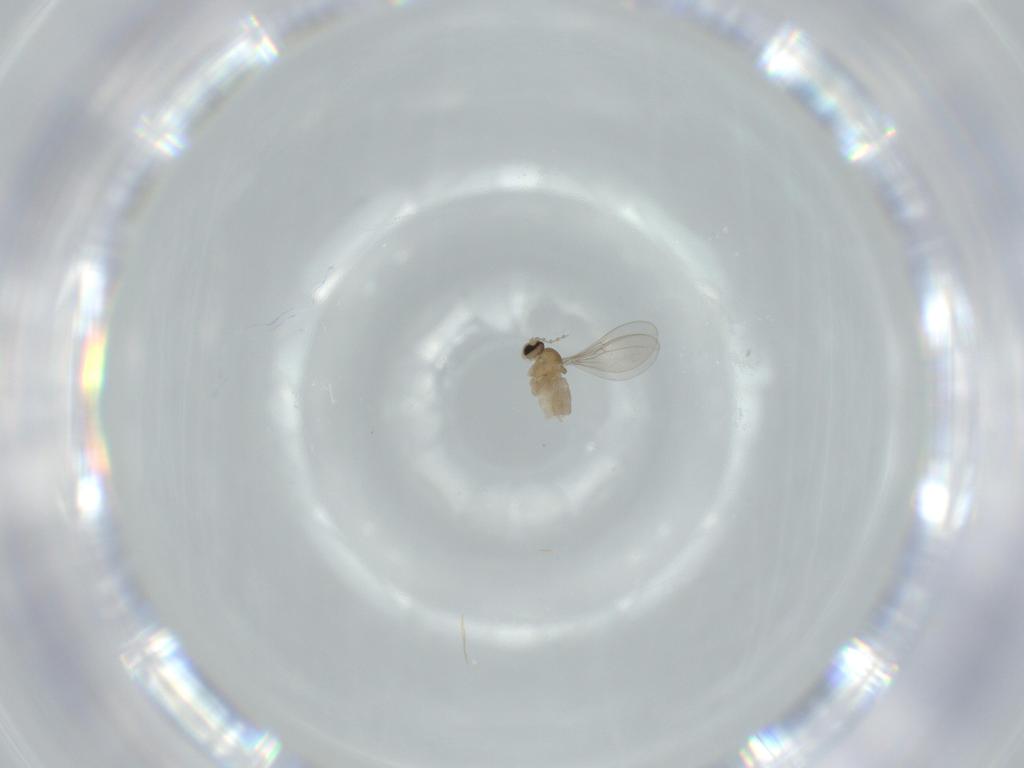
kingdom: Animalia
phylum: Arthropoda
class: Insecta
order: Diptera
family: Cecidomyiidae
